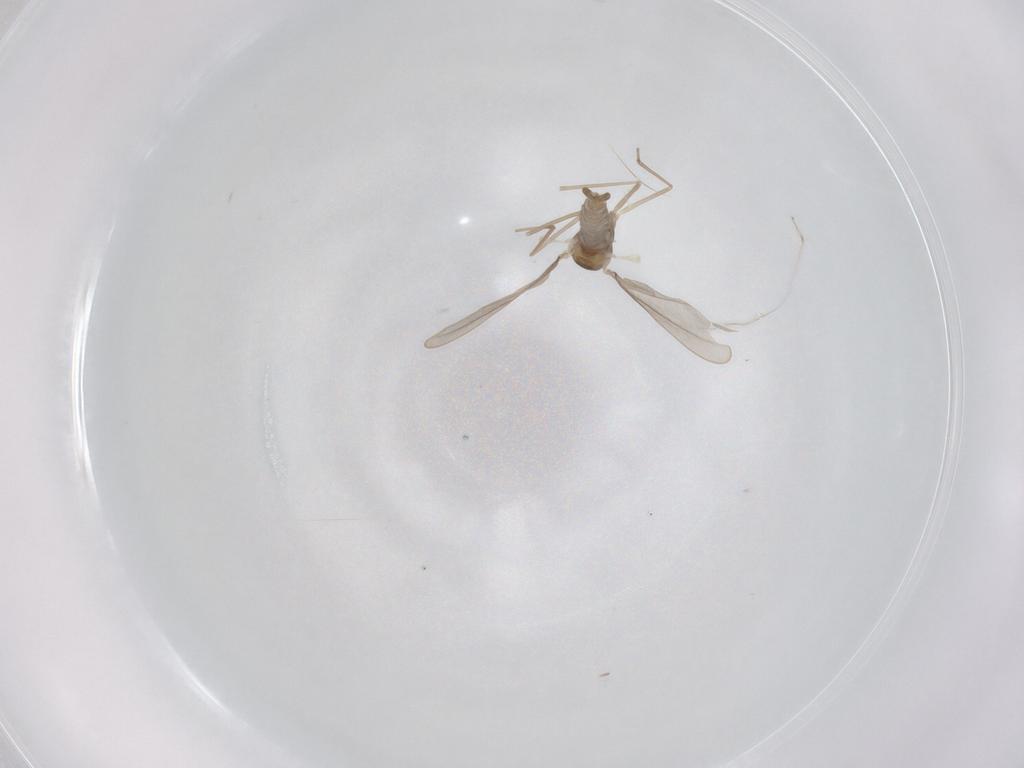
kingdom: Animalia
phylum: Arthropoda
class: Insecta
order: Diptera
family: Cecidomyiidae
